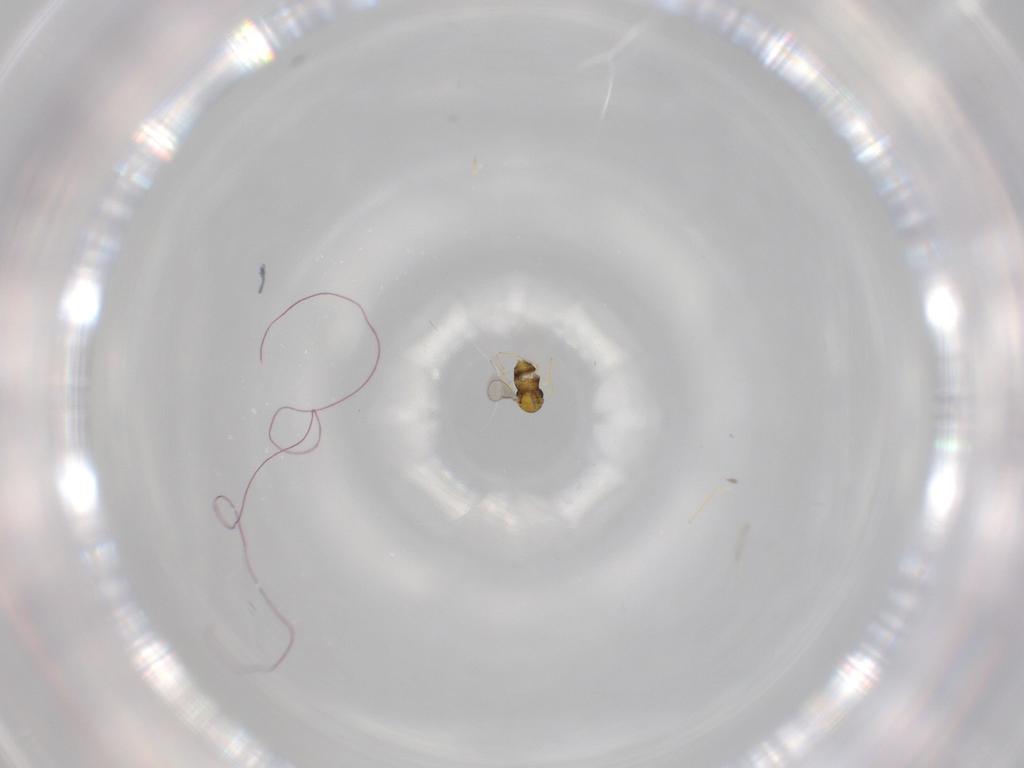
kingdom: Animalia
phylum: Arthropoda
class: Insecta
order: Hymenoptera
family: Aphelinidae
